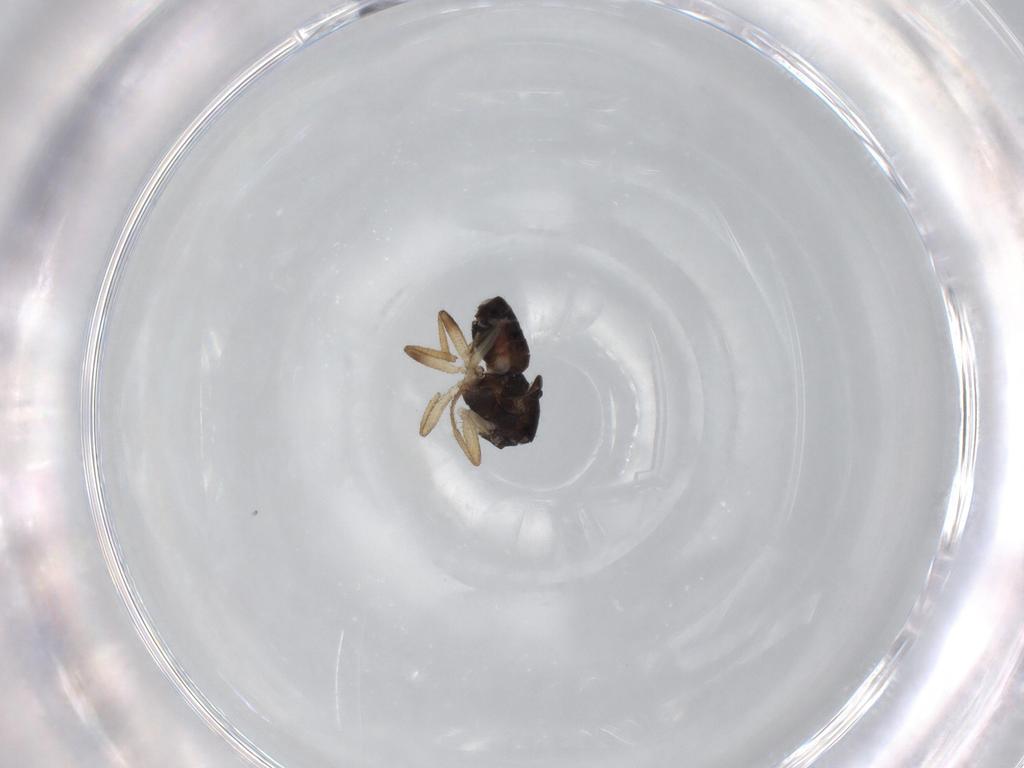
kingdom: Animalia
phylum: Arthropoda
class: Insecta
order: Diptera
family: Sphaeroceridae
